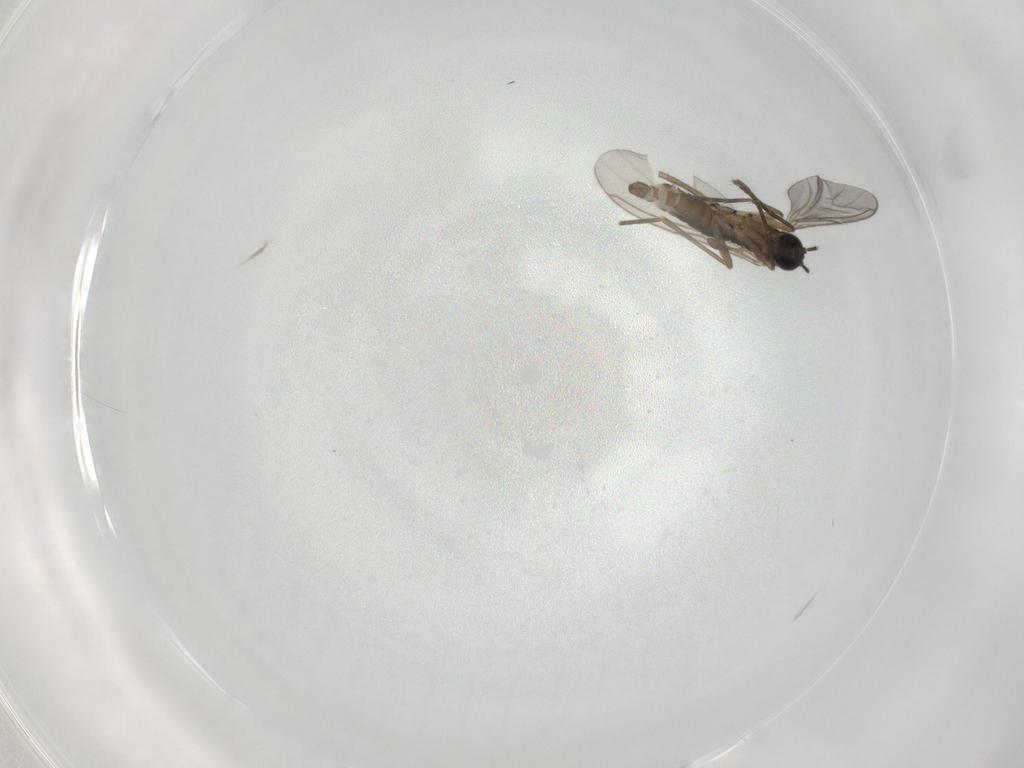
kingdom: Animalia
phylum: Arthropoda
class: Insecta
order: Diptera
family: Sciaridae
